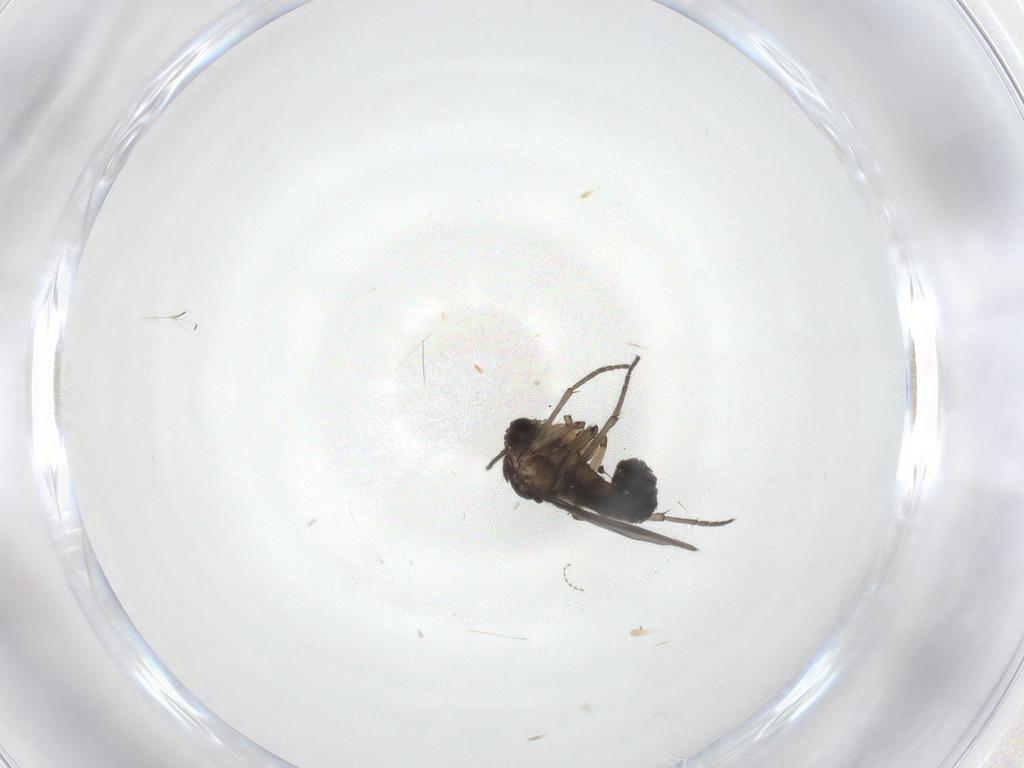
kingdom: Animalia
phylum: Arthropoda
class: Insecta
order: Diptera
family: Sciaridae
